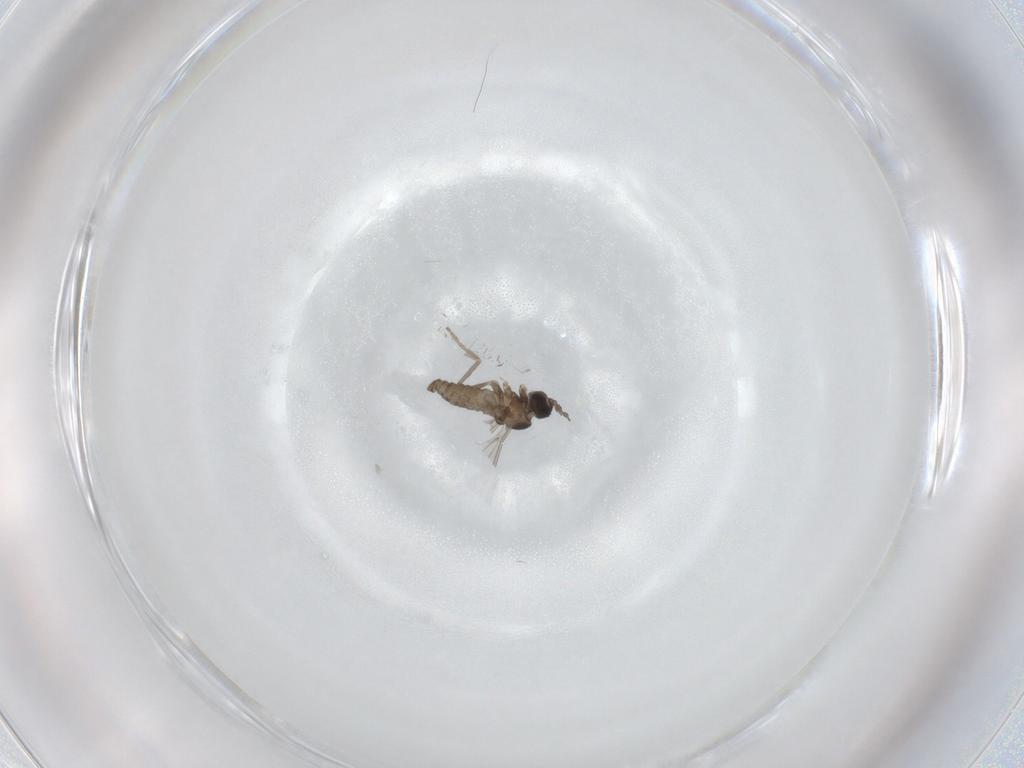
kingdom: Animalia
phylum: Arthropoda
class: Insecta
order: Diptera
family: Cecidomyiidae
